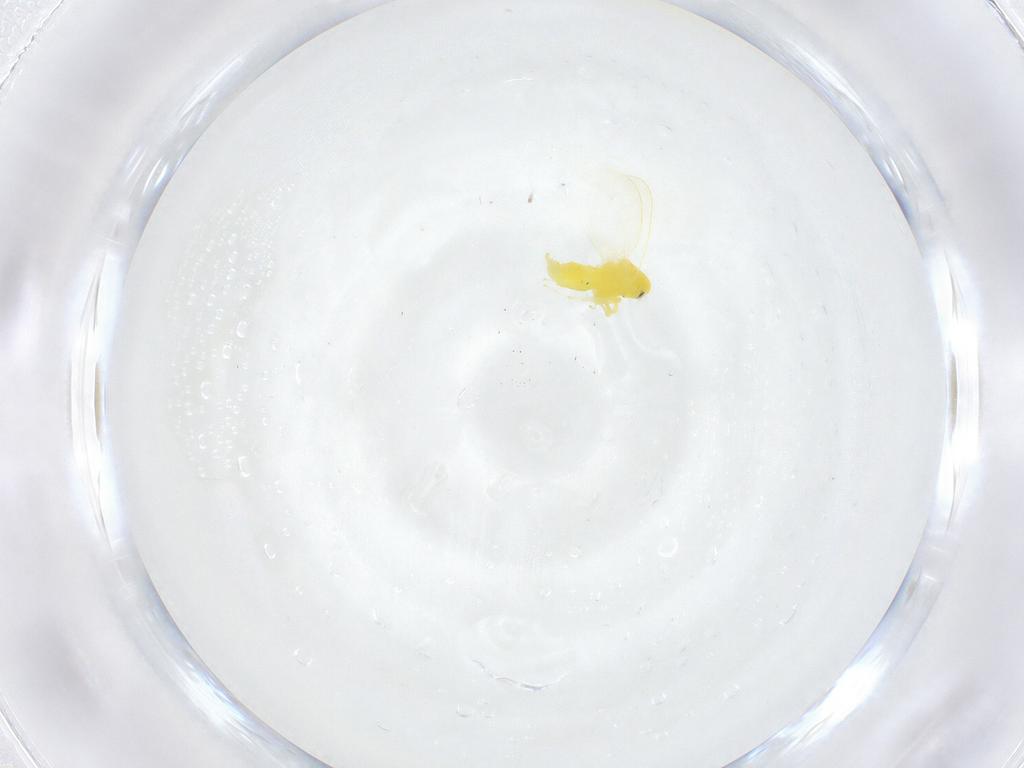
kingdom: Animalia
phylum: Arthropoda
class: Insecta
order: Hemiptera
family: Aleyrodidae
